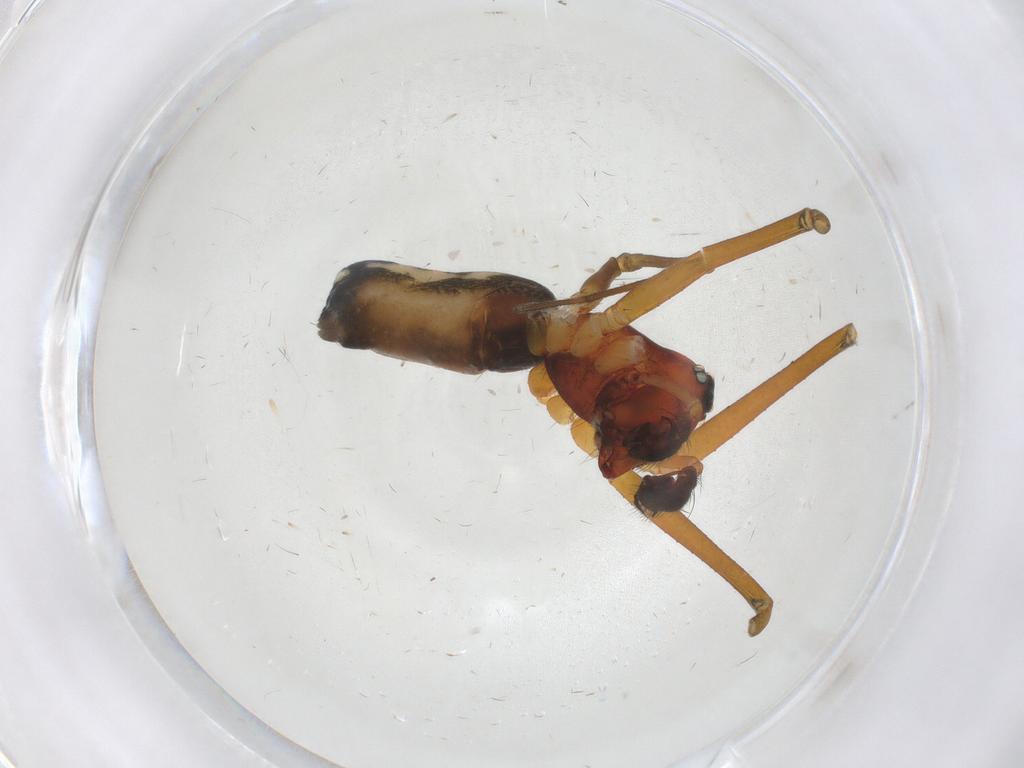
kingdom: Animalia
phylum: Arthropoda
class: Arachnida
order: Araneae
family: Linyphiidae
